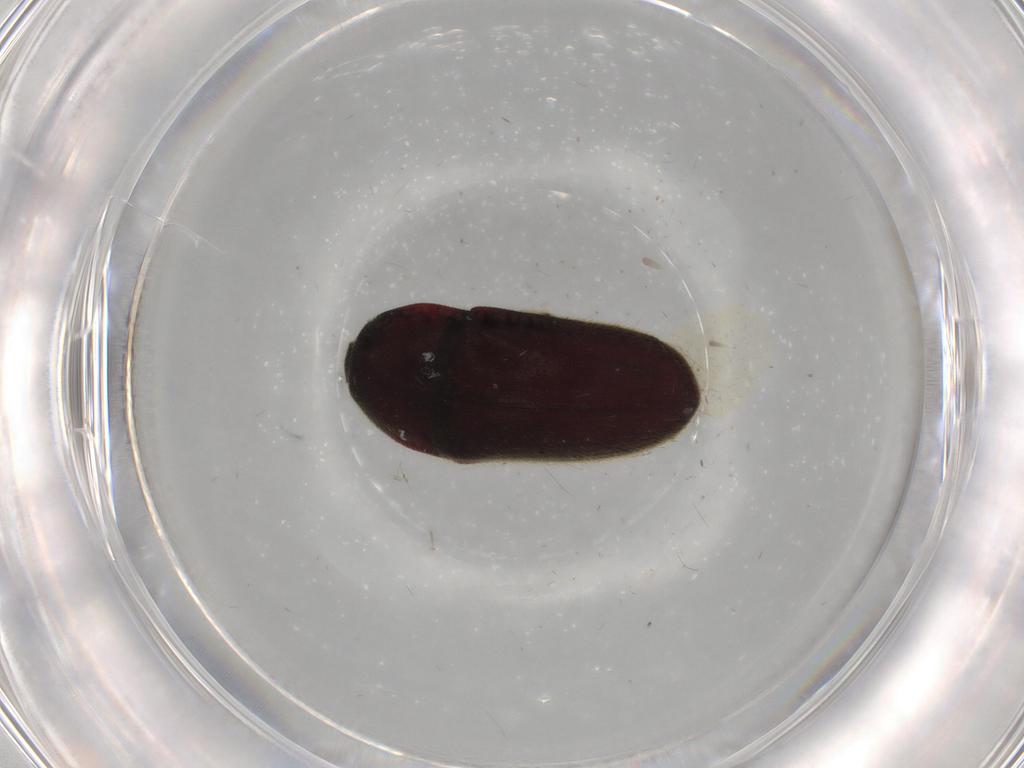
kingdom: Animalia
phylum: Arthropoda
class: Insecta
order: Coleoptera
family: Throscidae
